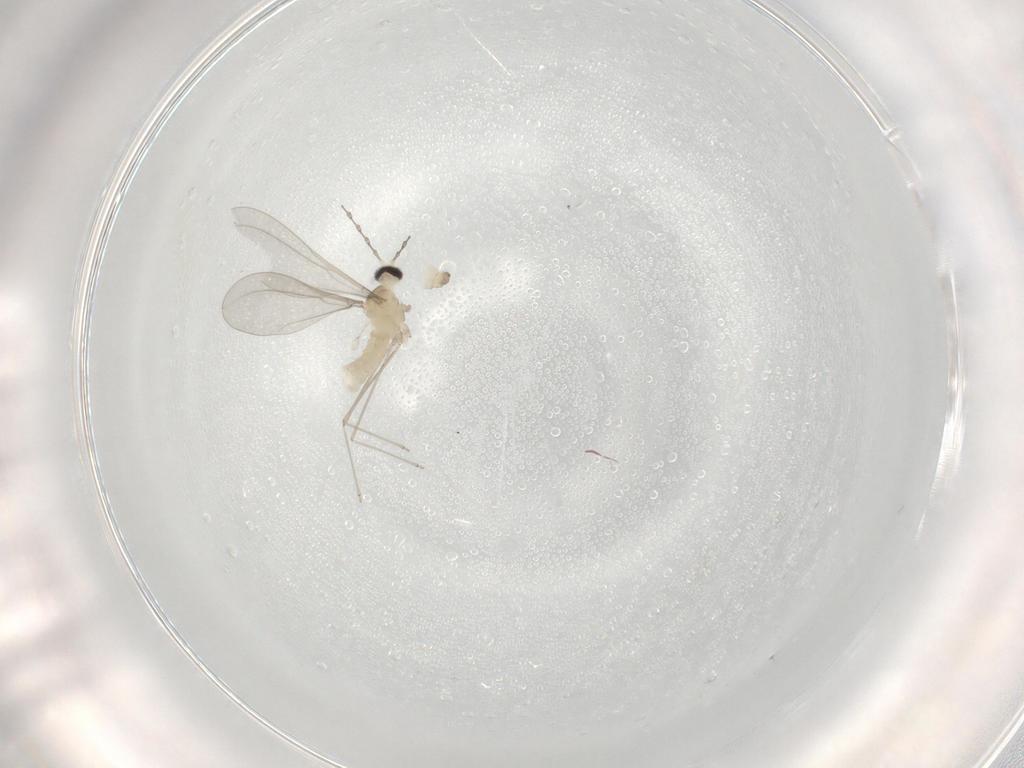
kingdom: Animalia
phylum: Arthropoda
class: Insecta
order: Diptera
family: Cecidomyiidae
